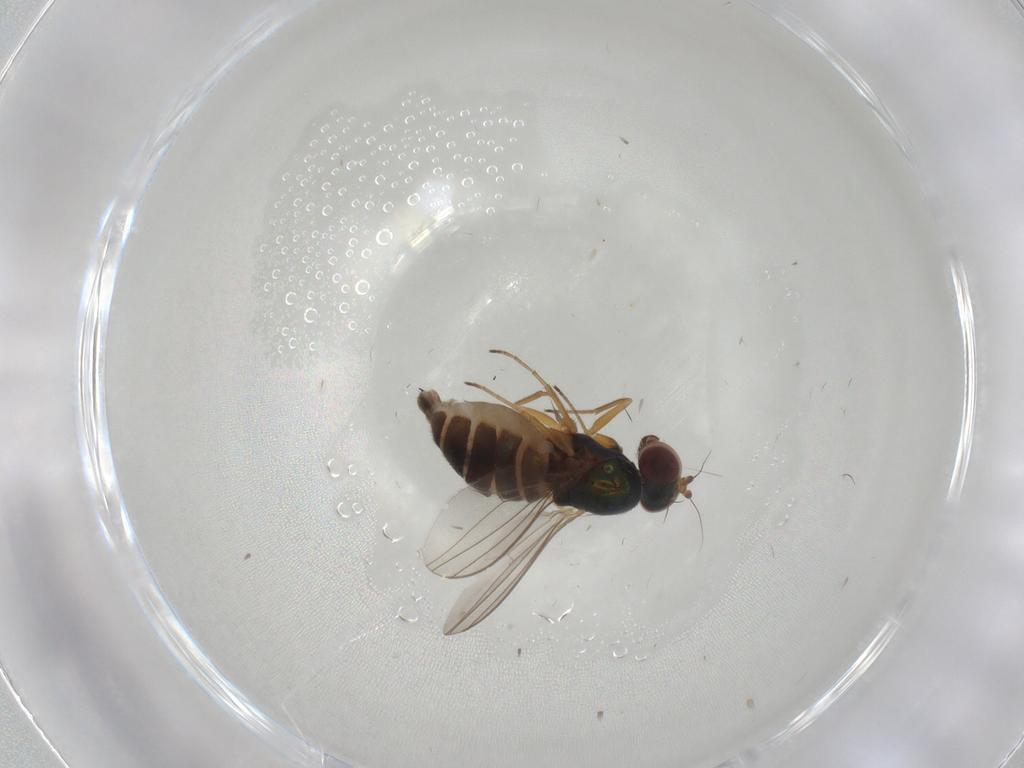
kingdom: Animalia
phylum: Arthropoda
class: Insecta
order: Diptera
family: Dolichopodidae
